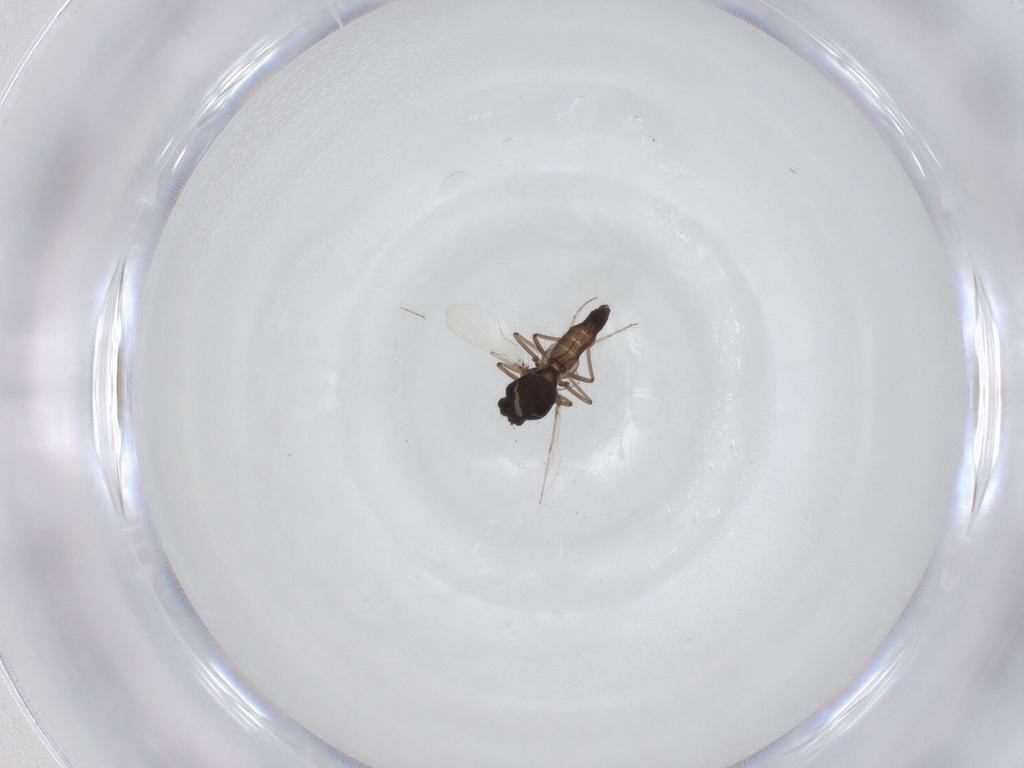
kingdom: Animalia
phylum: Arthropoda
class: Insecta
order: Diptera
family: Ceratopogonidae
